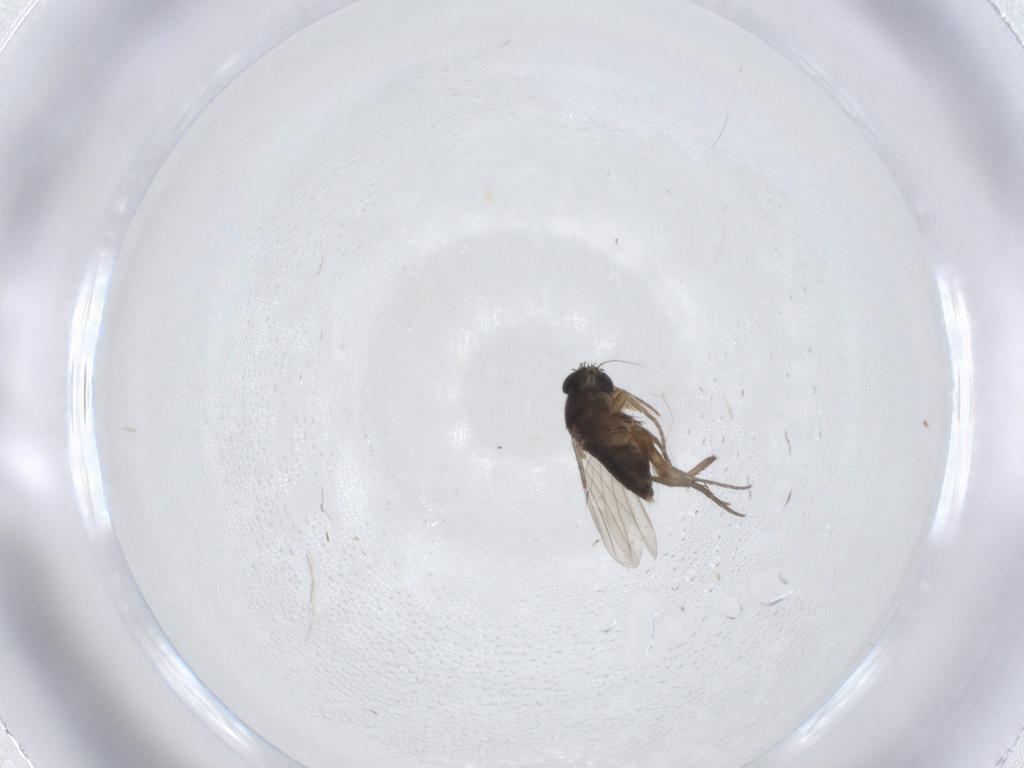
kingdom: Animalia
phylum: Arthropoda
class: Insecta
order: Diptera
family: Phoridae
